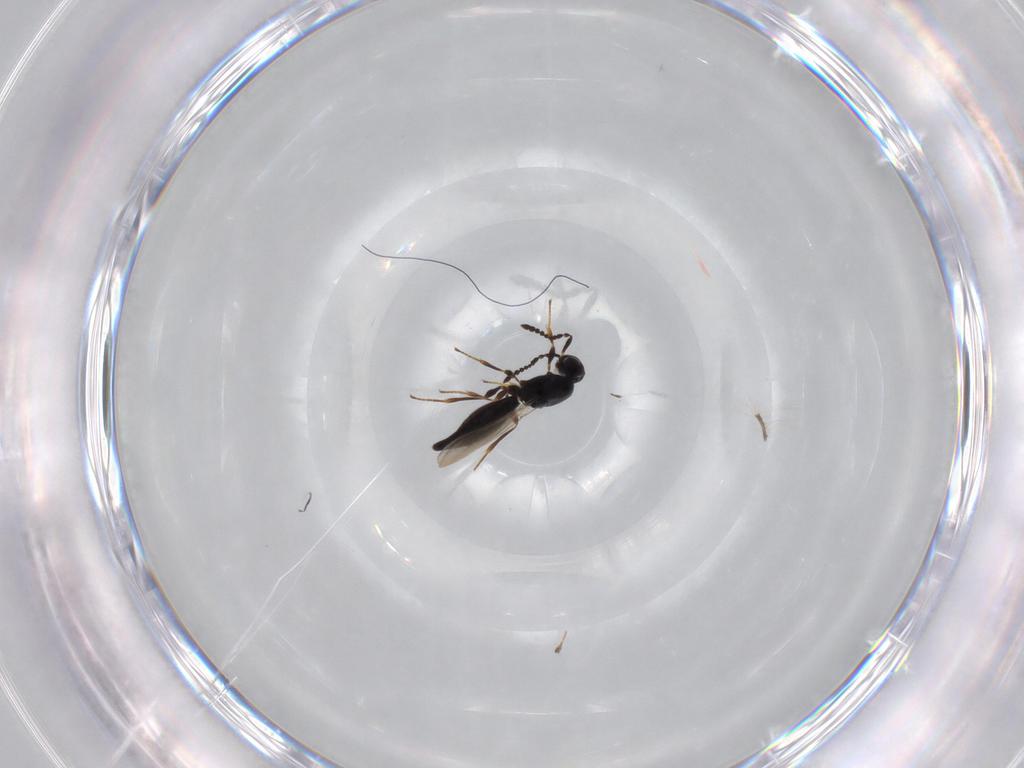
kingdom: Animalia
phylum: Arthropoda
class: Insecta
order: Hymenoptera
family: Platygastridae
